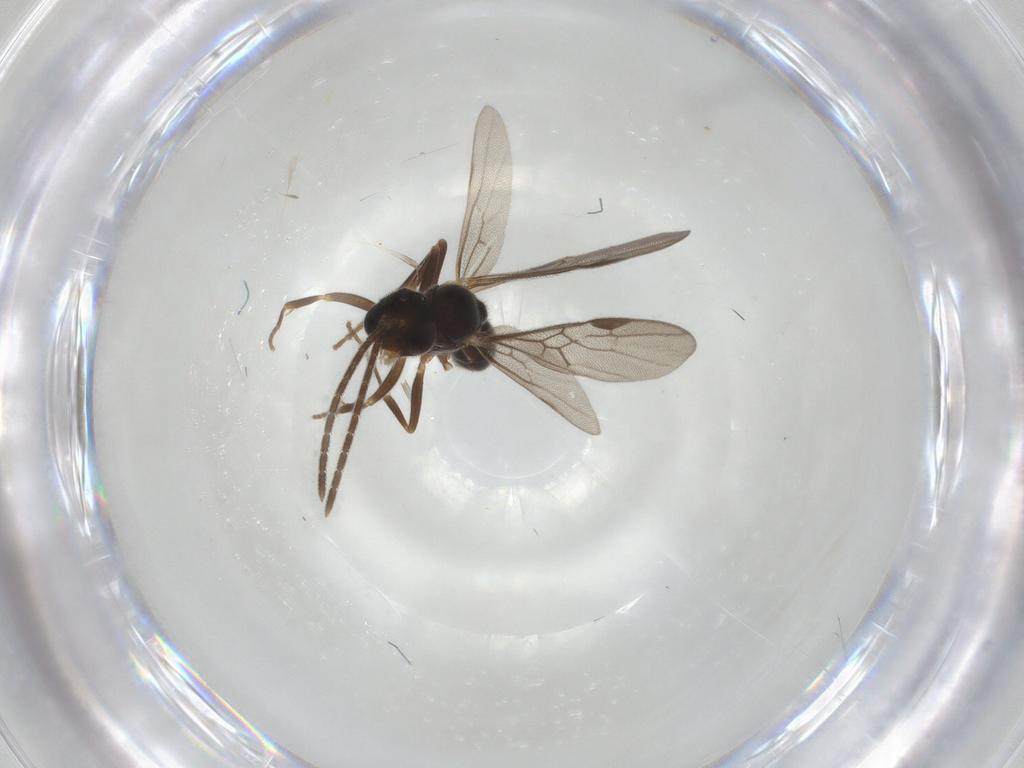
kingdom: Animalia
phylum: Arthropoda
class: Insecta
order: Hymenoptera
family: Formicidae
